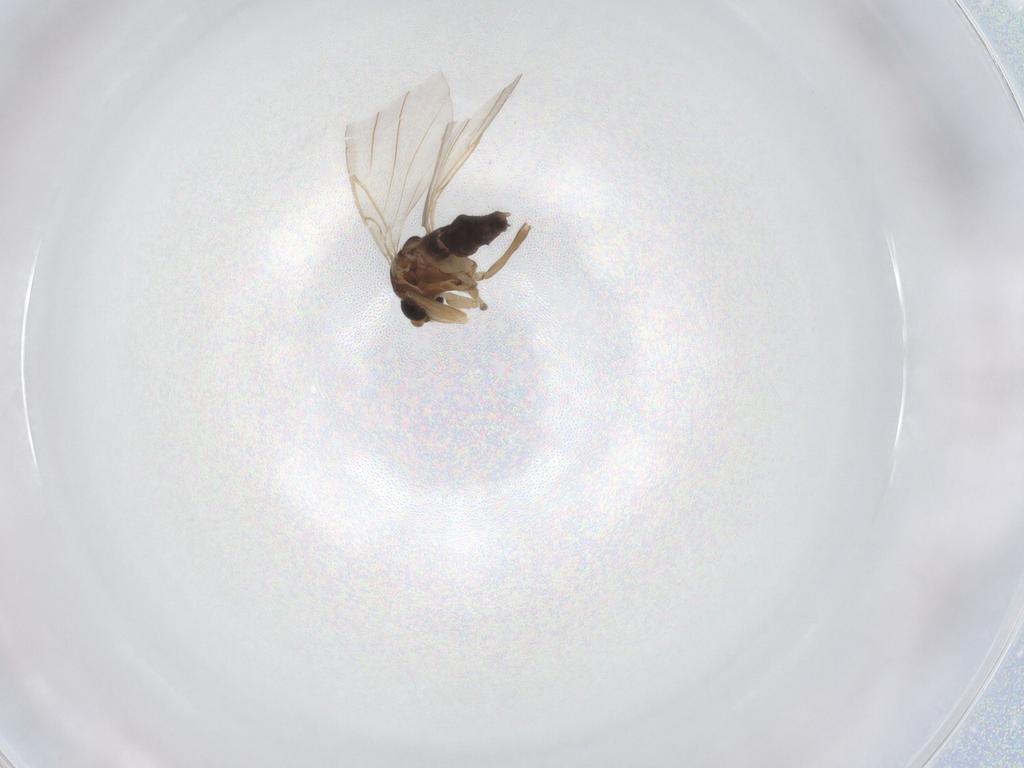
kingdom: Animalia
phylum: Arthropoda
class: Insecta
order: Diptera
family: Phoridae
